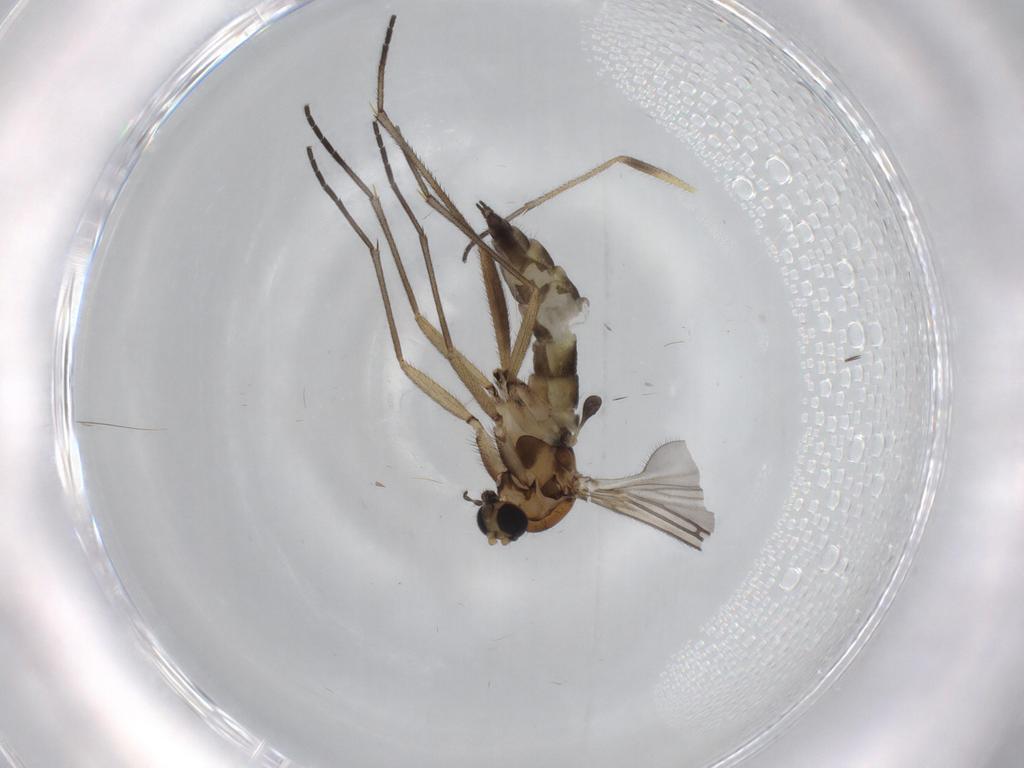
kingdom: Animalia
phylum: Arthropoda
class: Insecta
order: Diptera
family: Sciaridae
